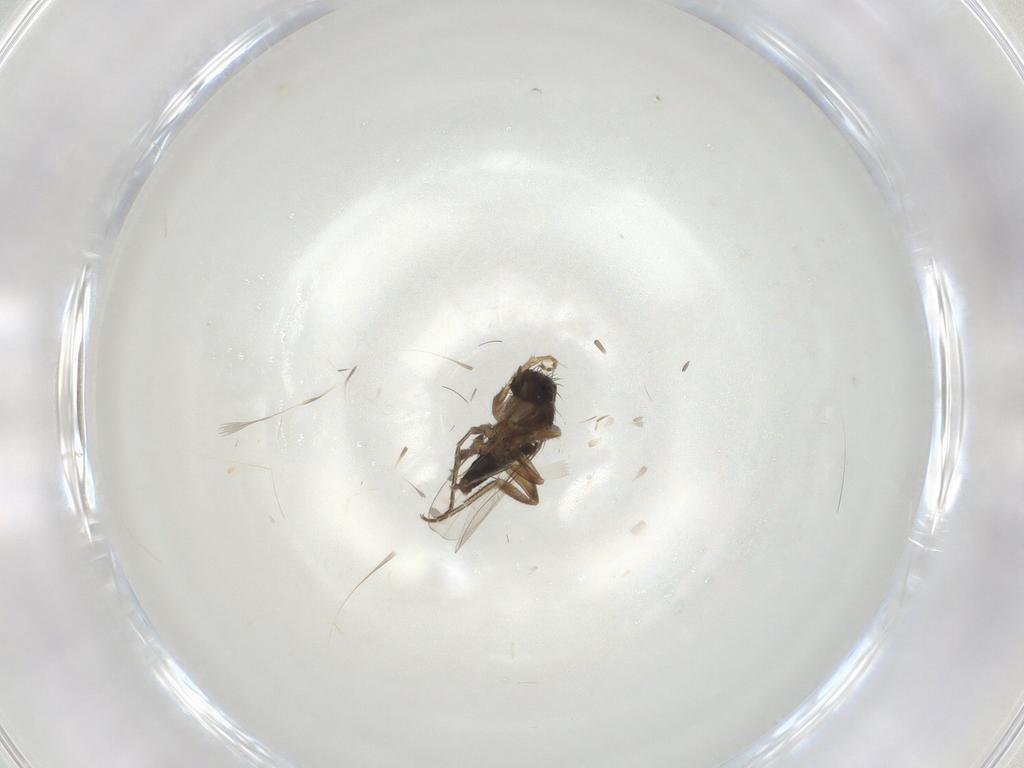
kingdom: Animalia
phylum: Arthropoda
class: Insecta
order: Diptera
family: Phoridae
